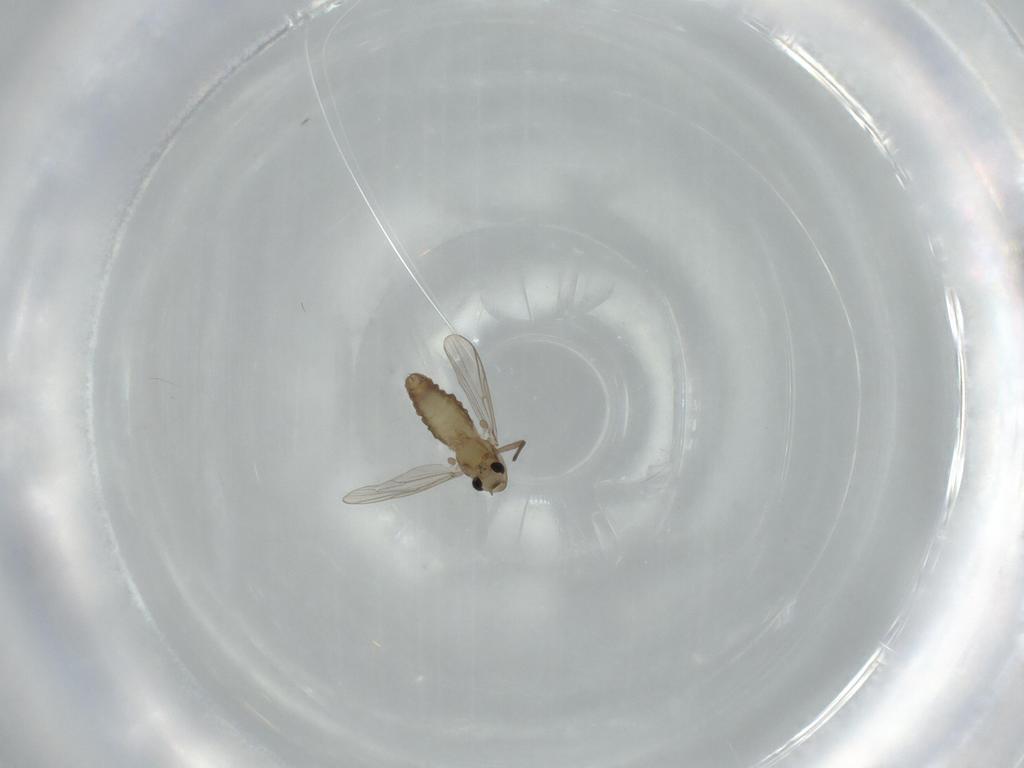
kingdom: Animalia
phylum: Arthropoda
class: Insecta
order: Diptera
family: Chironomidae
